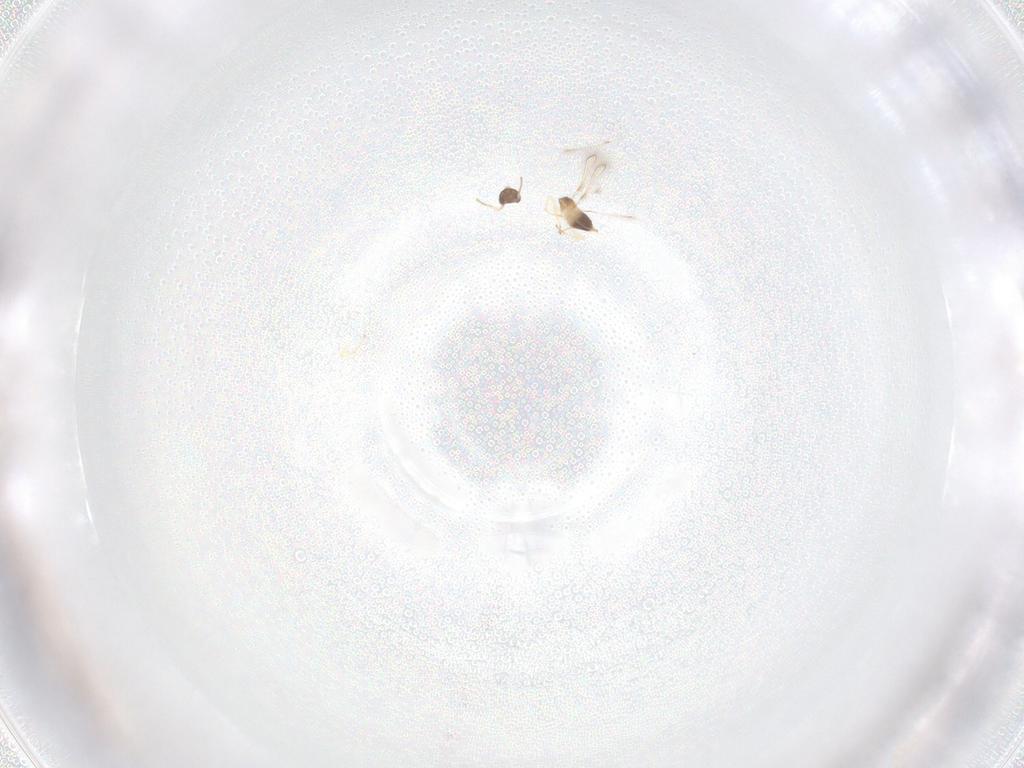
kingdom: Animalia
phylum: Arthropoda
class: Insecta
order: Hymenoptera
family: Mymaridae
